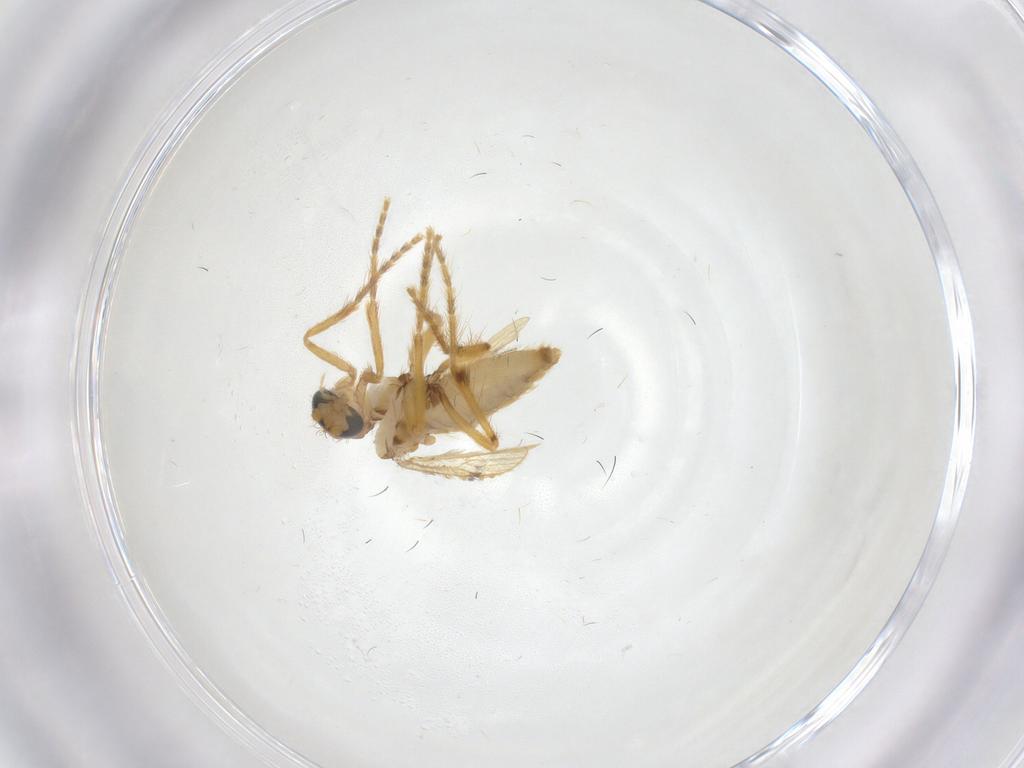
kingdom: Animalia
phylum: Arthropoda
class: Insecta
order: Diptera
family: Corethrellidae
